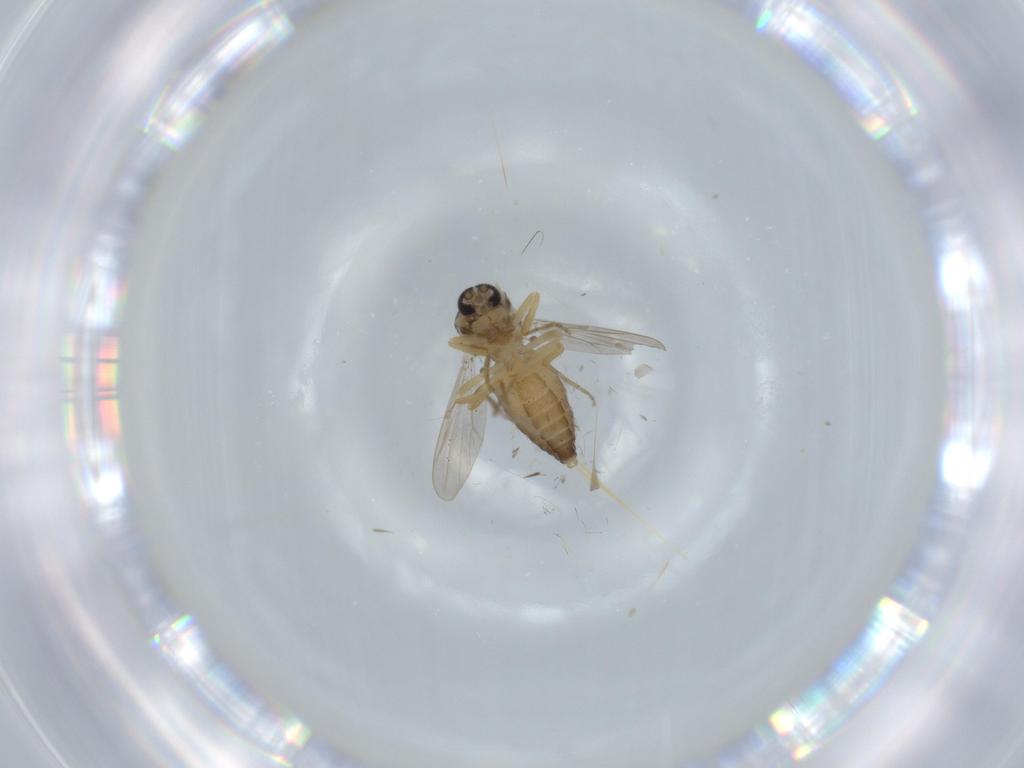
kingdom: Animalia
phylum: Arthropoda
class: Insecta
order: Diptera
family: Ceratopogonidae
